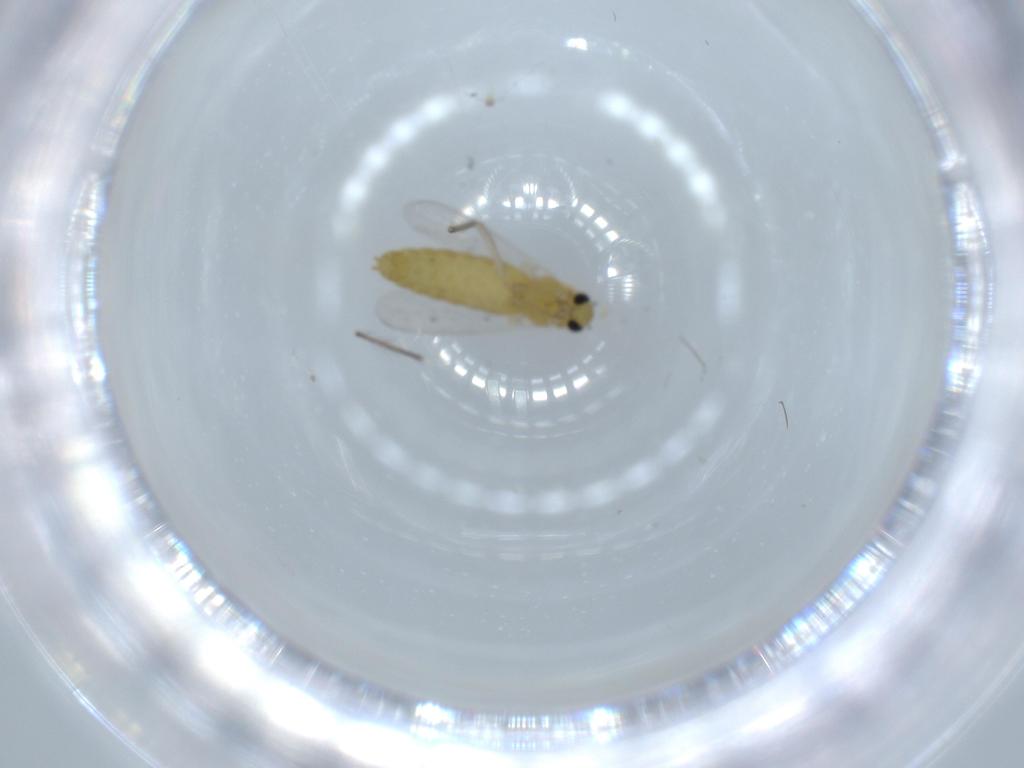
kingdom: Animalia
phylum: Arthropoda
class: Insecta
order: Diptera
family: Chironomidae
